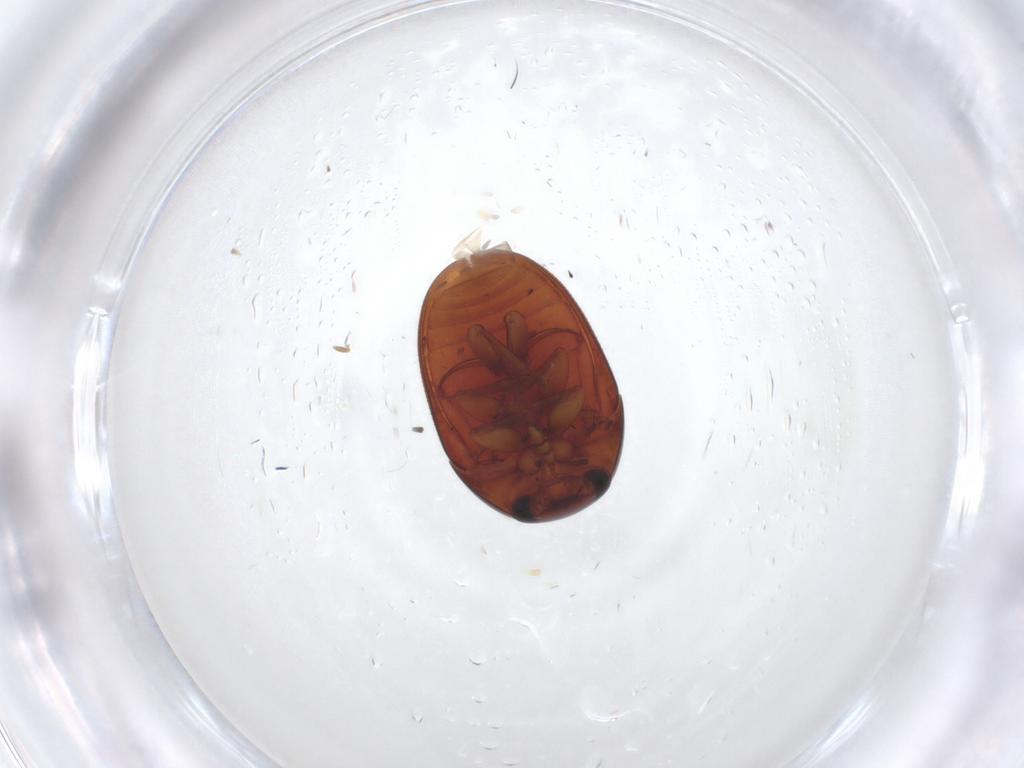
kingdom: Animalia
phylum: Arthropoda
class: Insecta
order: Coleoptera
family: Phalacridae
